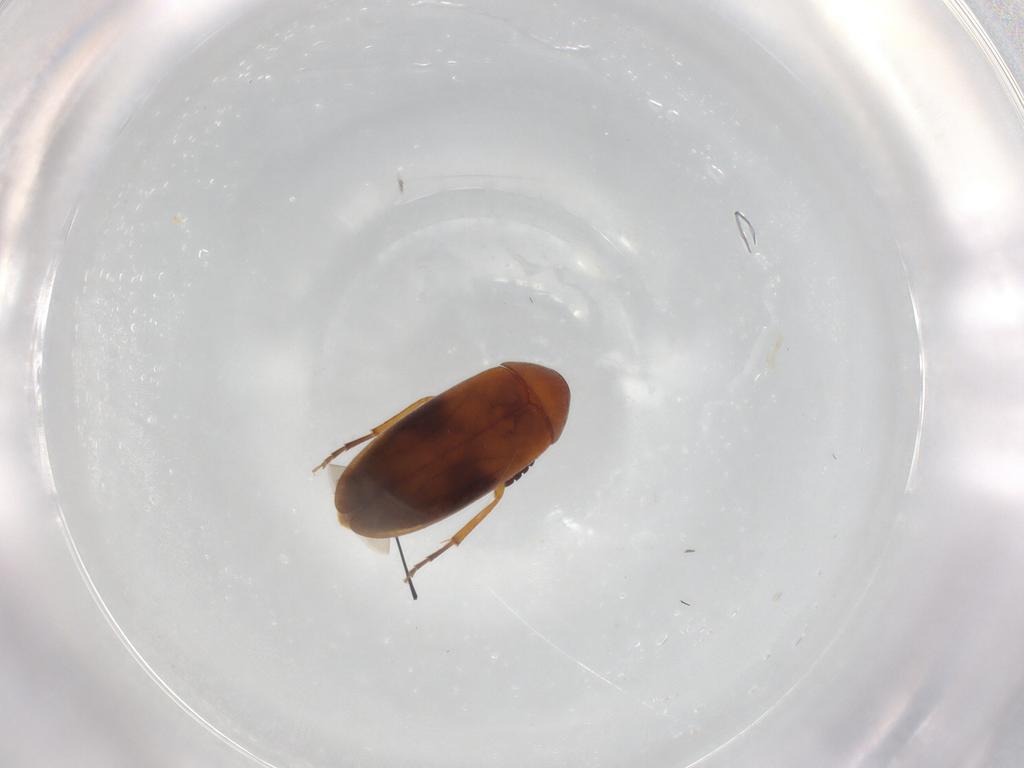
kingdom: Animalia
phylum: Arthropoda
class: Insecta
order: Coleoptera
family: Scraptiidae
